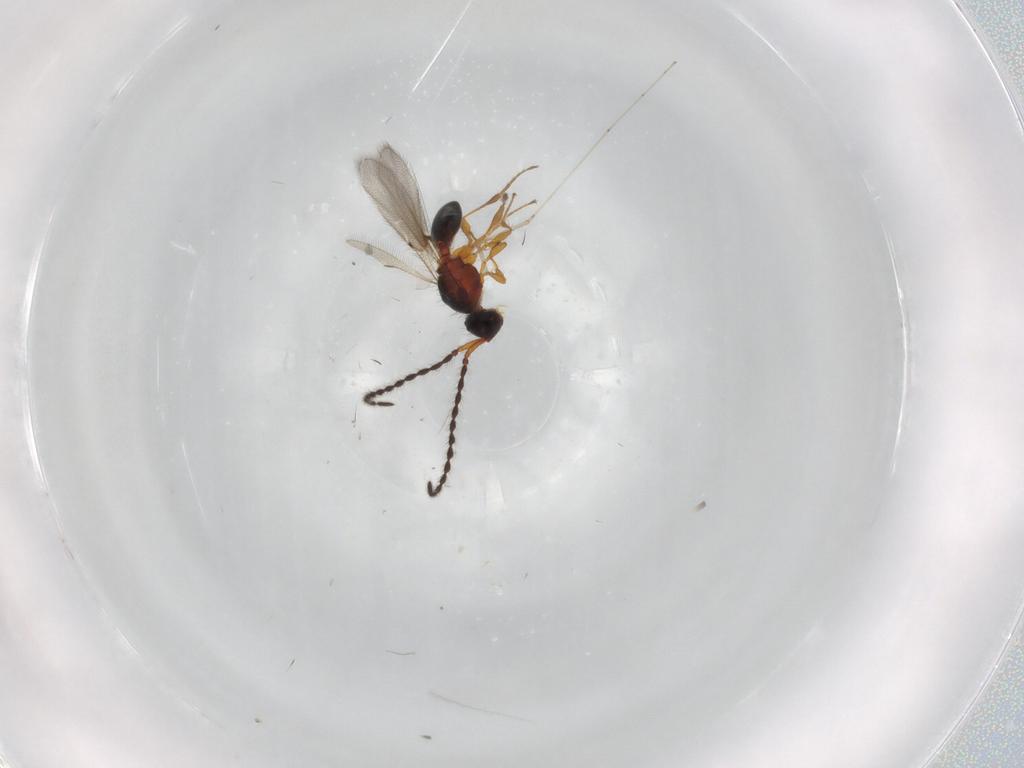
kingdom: Animalia
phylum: Arthropoda
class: Insecta
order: Hymenoptera
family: Diapriidae
